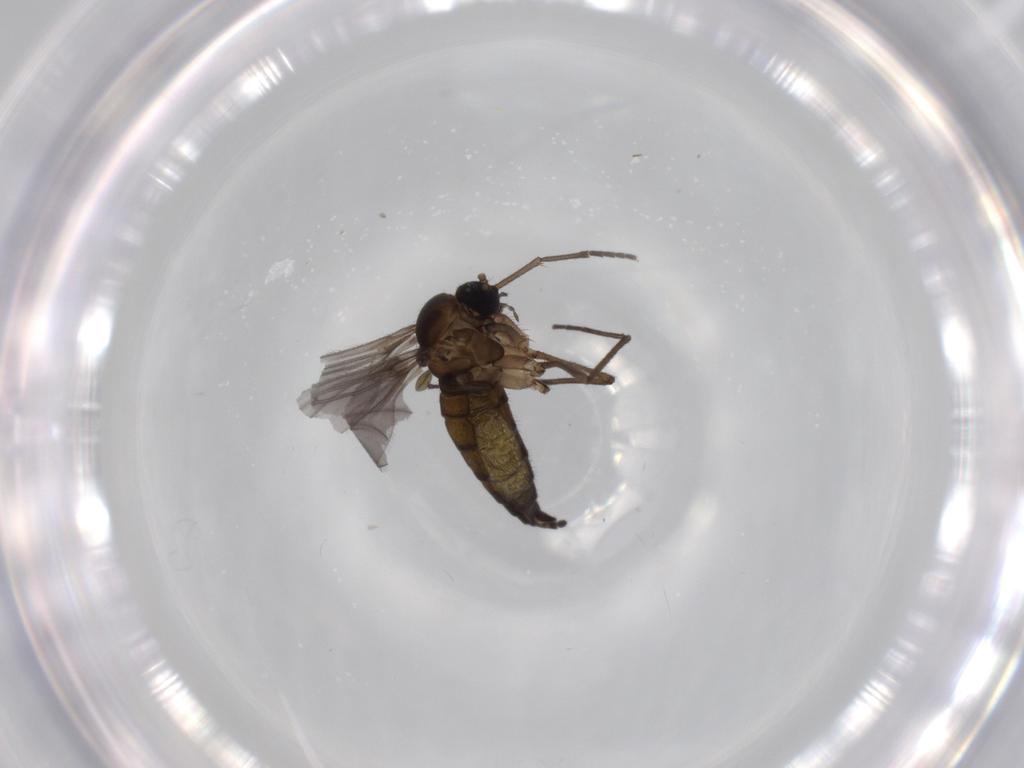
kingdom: Animalia
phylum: Arthropoda
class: Insecta
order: Diptera
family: Sciaridae
